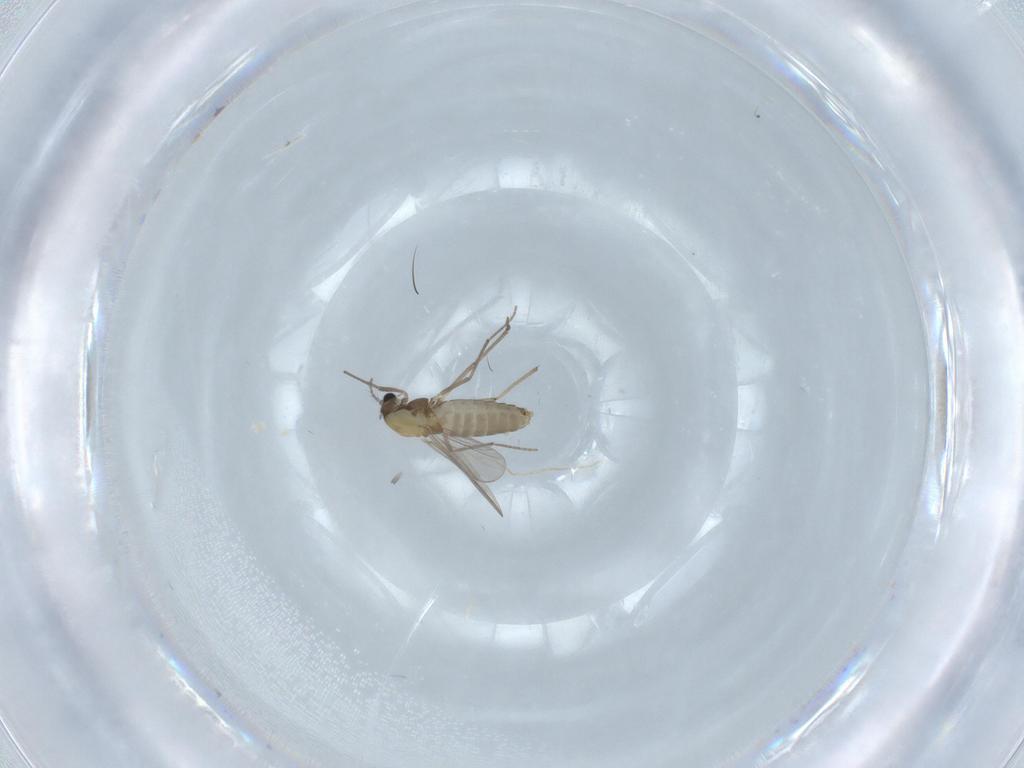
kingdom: Animalia
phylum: Arthropoda
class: Insecta
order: Diptera
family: Chironomidae
